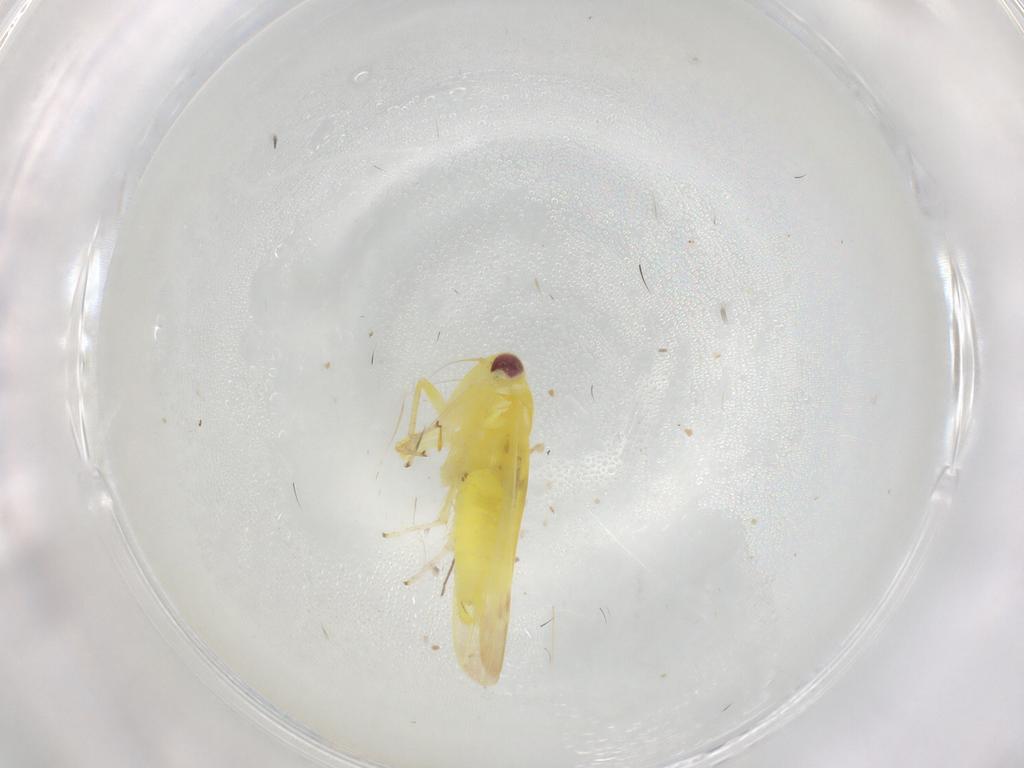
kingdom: Animalia
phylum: Arthropoda
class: Insecta
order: Hemiptera
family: Cicadellidae
